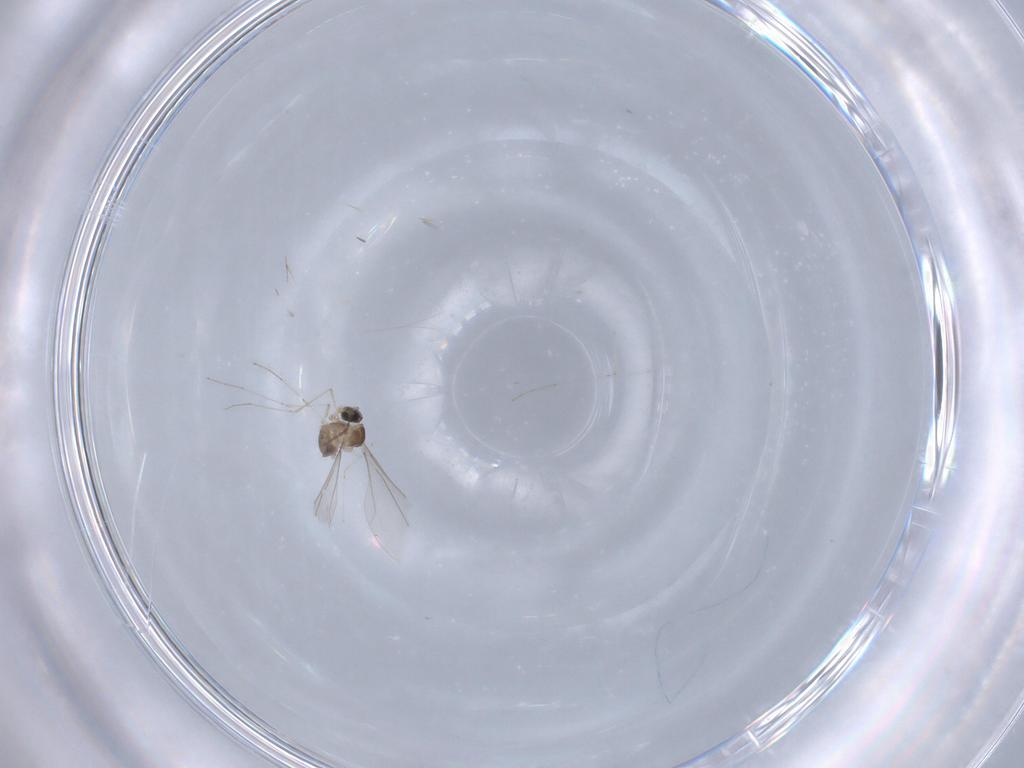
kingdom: Animalia
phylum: Arthropoda
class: Insecta
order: Diptera
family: Cecidomyiidae
